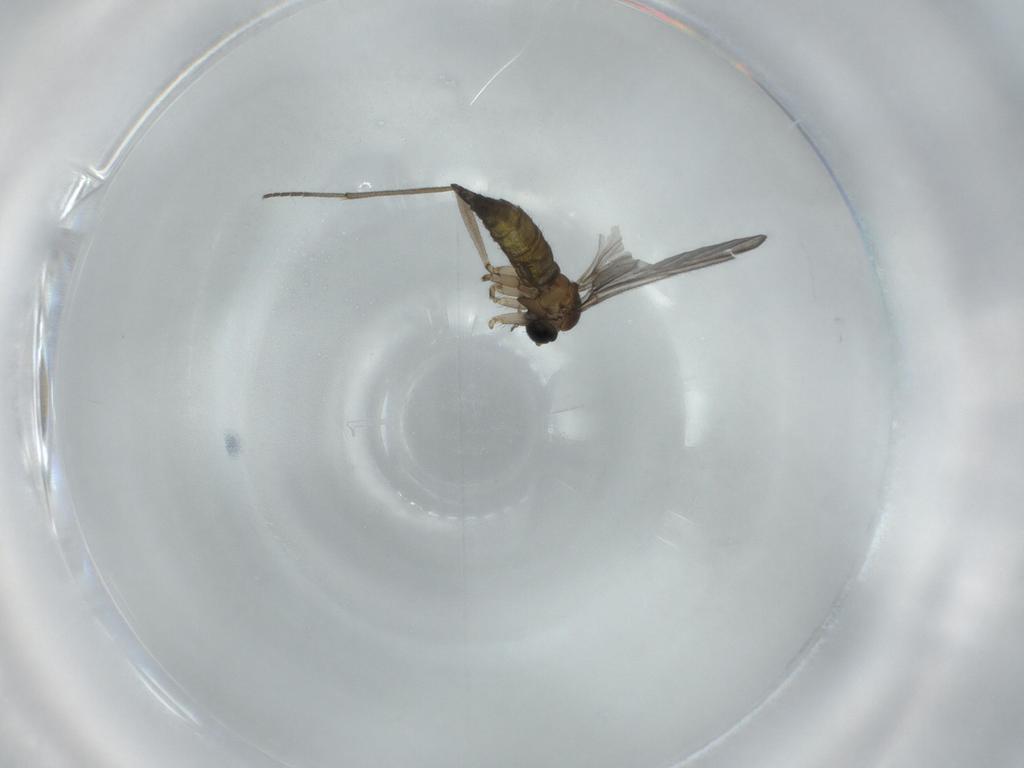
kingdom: Animalia
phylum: Arthropoda
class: Insecta
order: Diptera
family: Sciaridae
